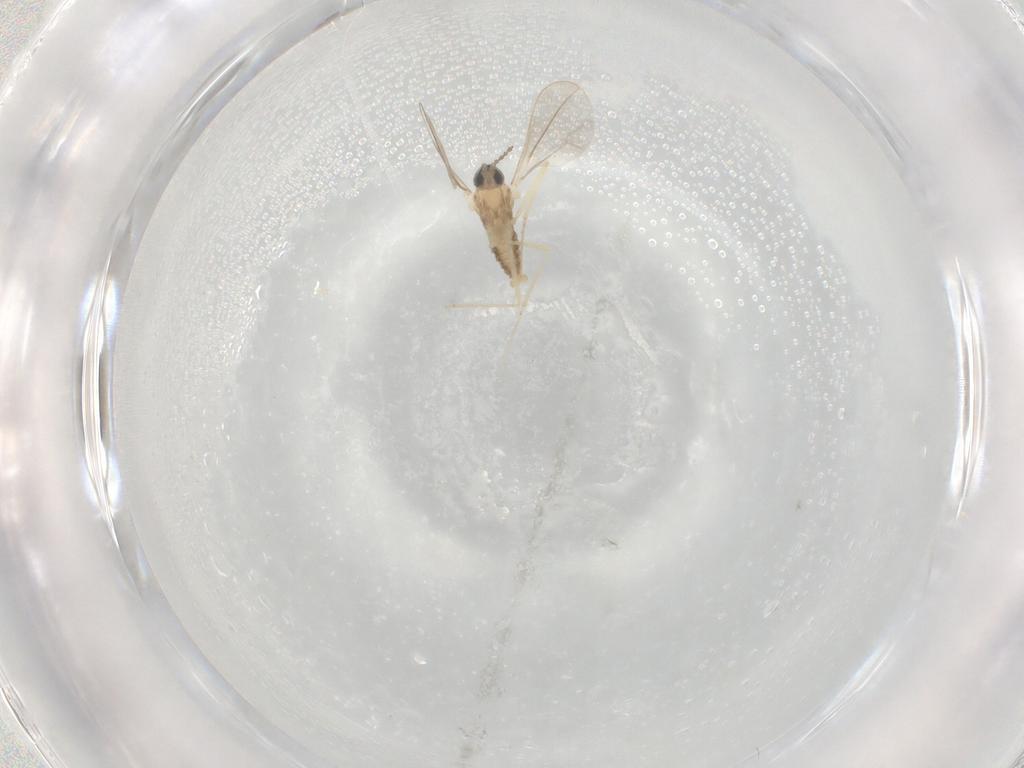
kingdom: Animalia
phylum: Arthropoda
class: Insecta
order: Diptera
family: Cecidomyiidae
